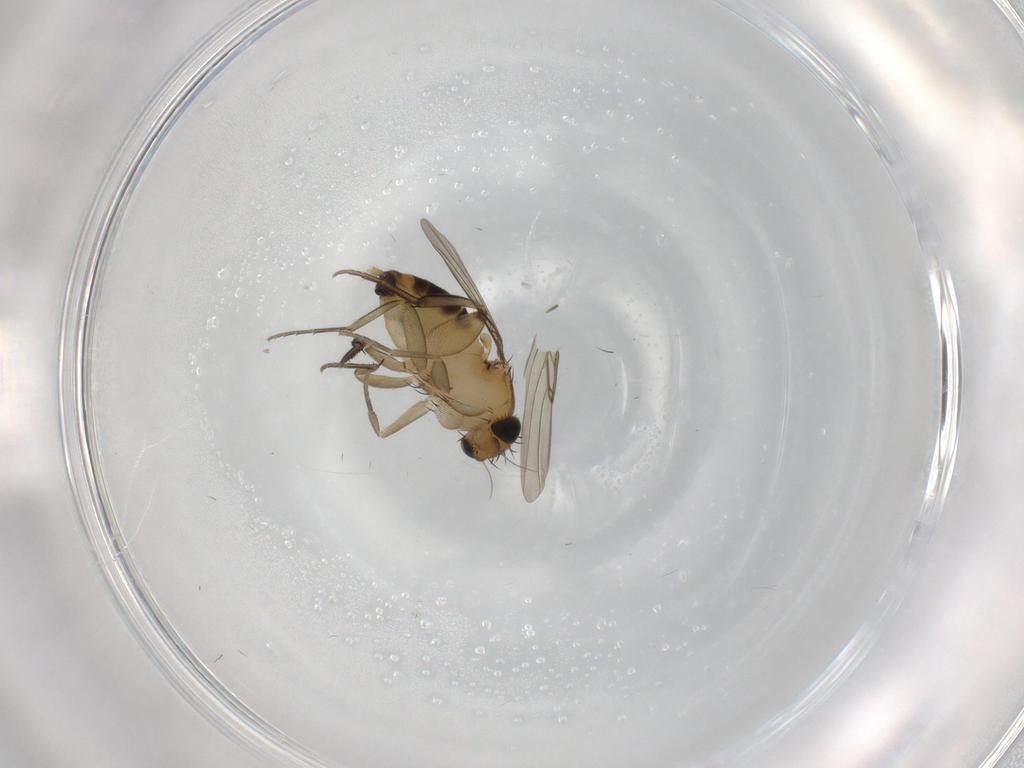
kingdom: Animalia
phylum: Arthropoda
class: Insecta
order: Diptera
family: Phoridae
